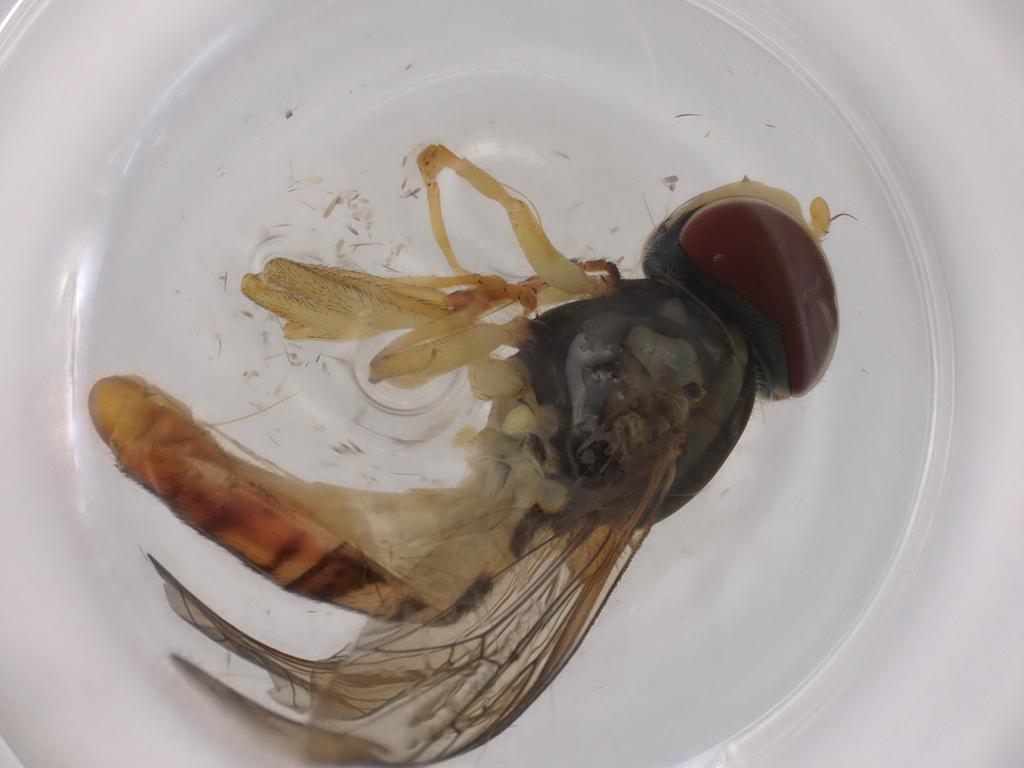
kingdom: Animalia
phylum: Arthropoda
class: Insecta
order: Diptera
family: Syrphidae
